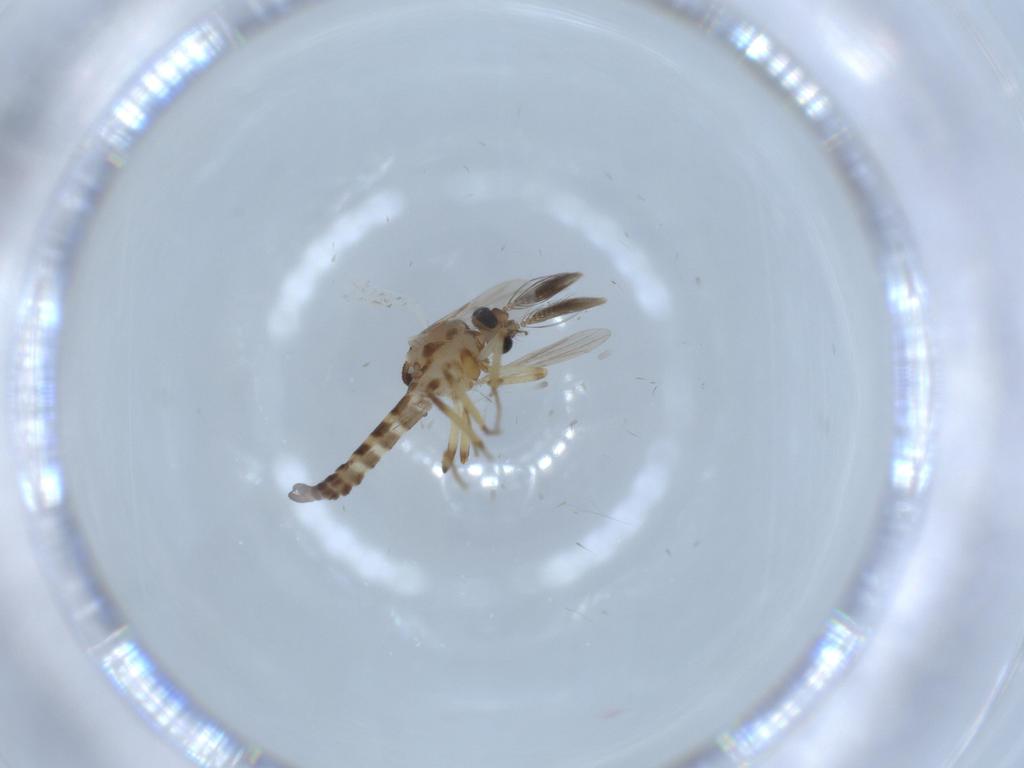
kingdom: Animalia
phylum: Arthropoda
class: Insecta
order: Diptera
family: Ceratopogonidae
